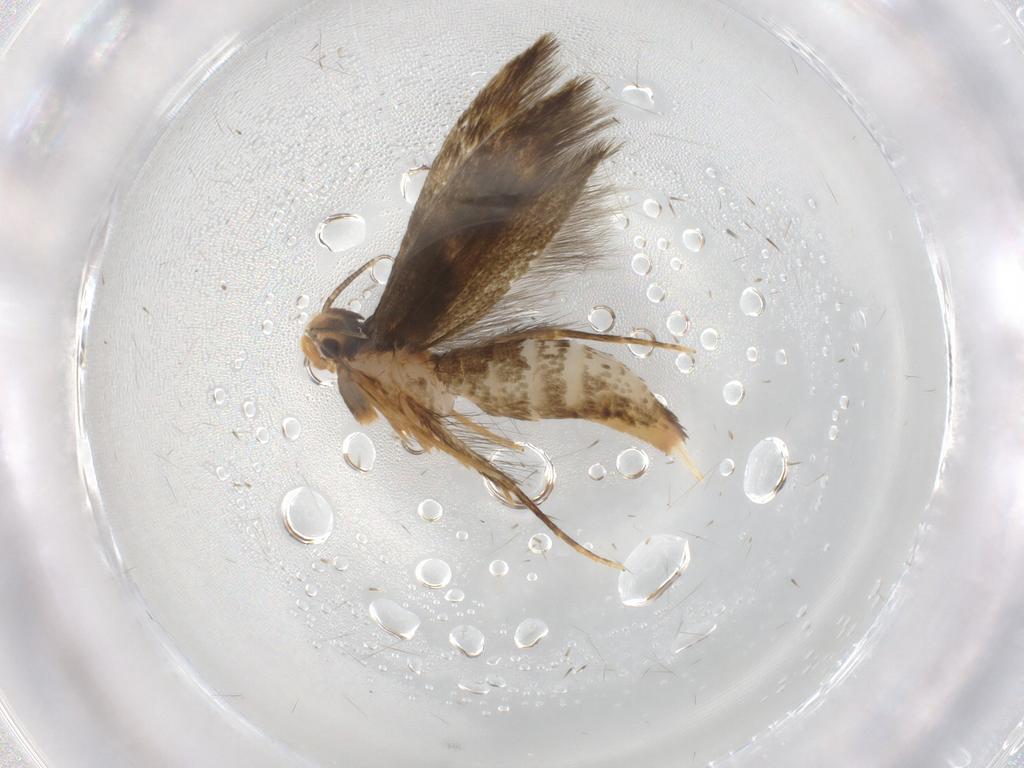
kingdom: Animalia
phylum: Arthropoda
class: Insecta
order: Lepidoptera
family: Tineidae
